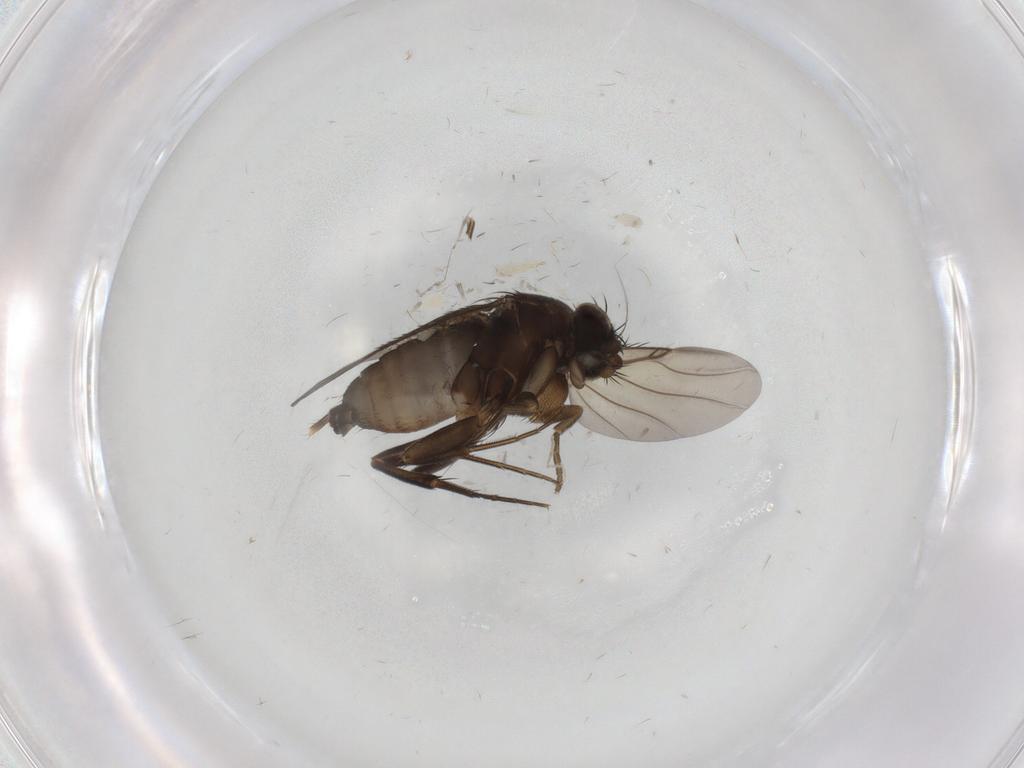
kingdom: Animalia
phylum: Arthropoda
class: Insecta
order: Diptera
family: Phoridae
